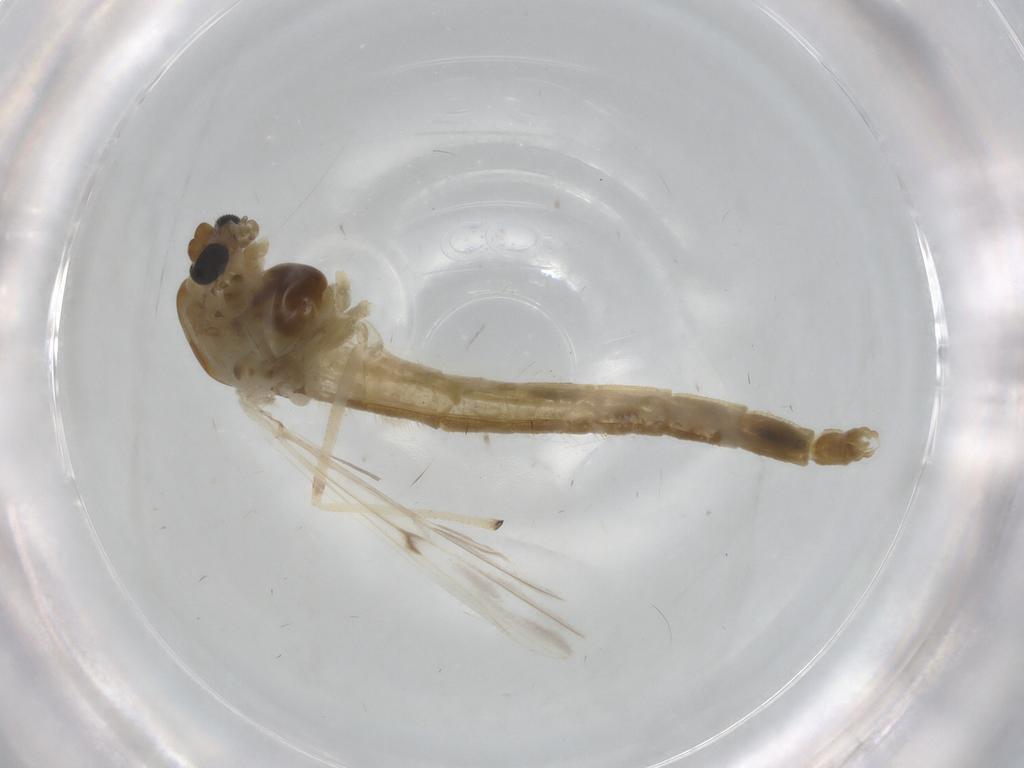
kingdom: Animalia
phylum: Arthropoda
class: Insecta
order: Diptera
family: Chironomidae
